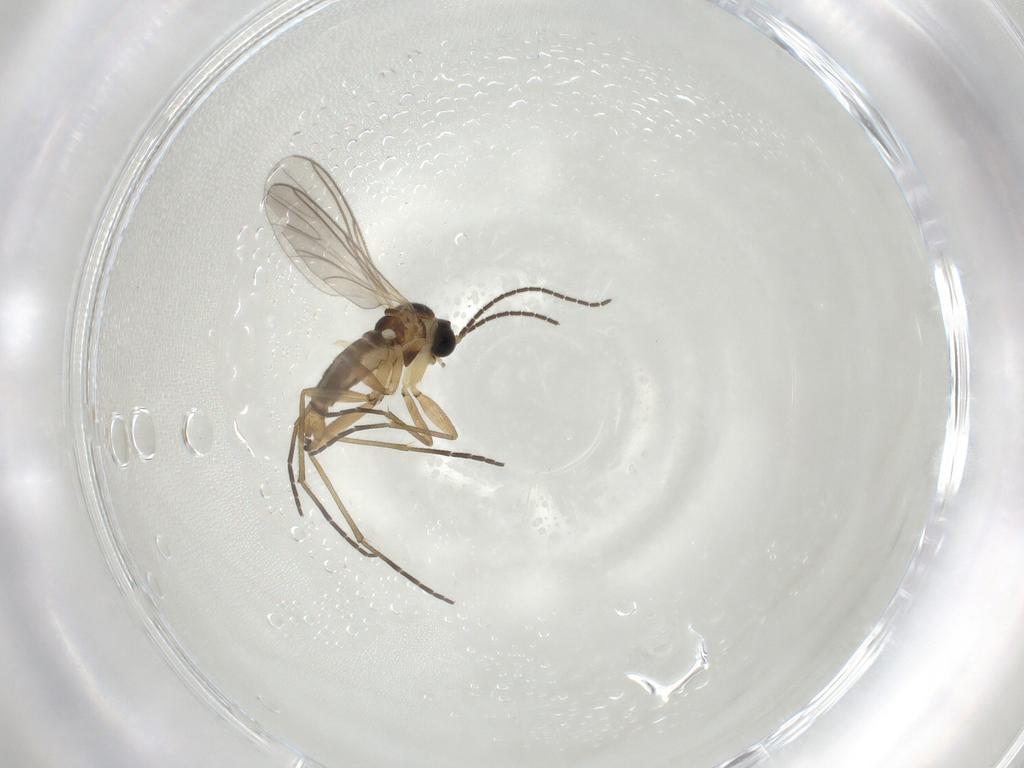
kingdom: Animalia
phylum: Arthropoda
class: Insecta
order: Diptera
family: Sciaridae
